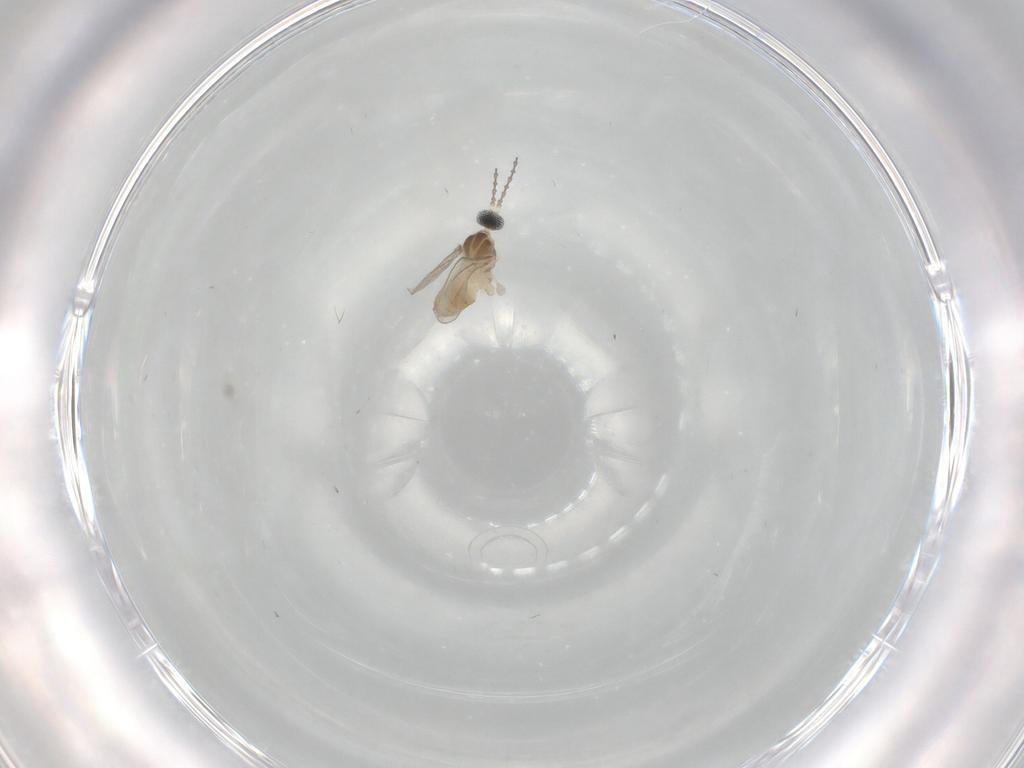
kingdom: Animalia
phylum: Arthropoda
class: Insecta
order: Diptera
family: Cecidomyiidae
